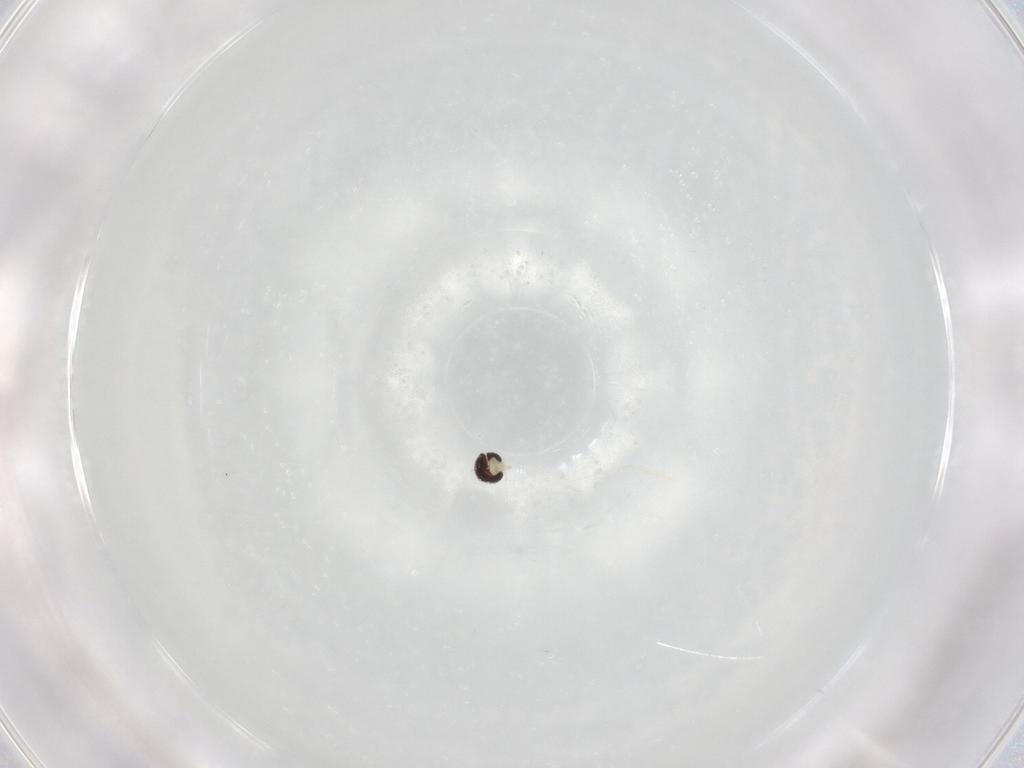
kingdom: Animalia
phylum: Arthropoda
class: Insecta
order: Diptera
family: Cecidomyiidae
